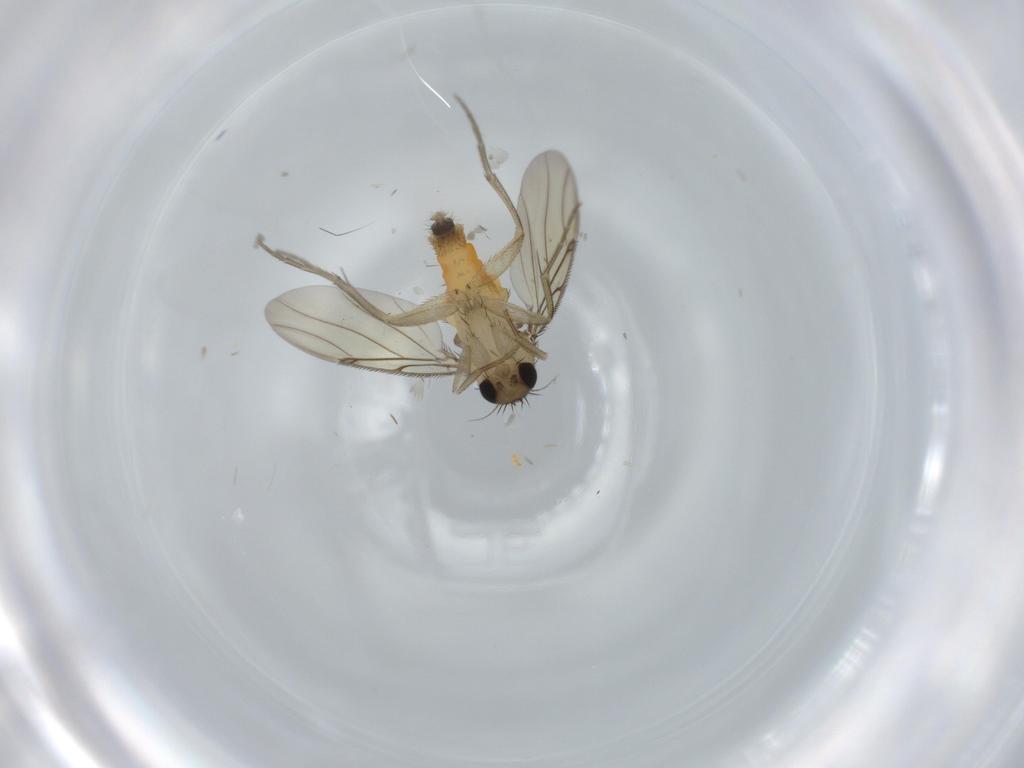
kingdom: Animalia
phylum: Arthropoda
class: Insecta
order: Diptera
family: Phoridae
